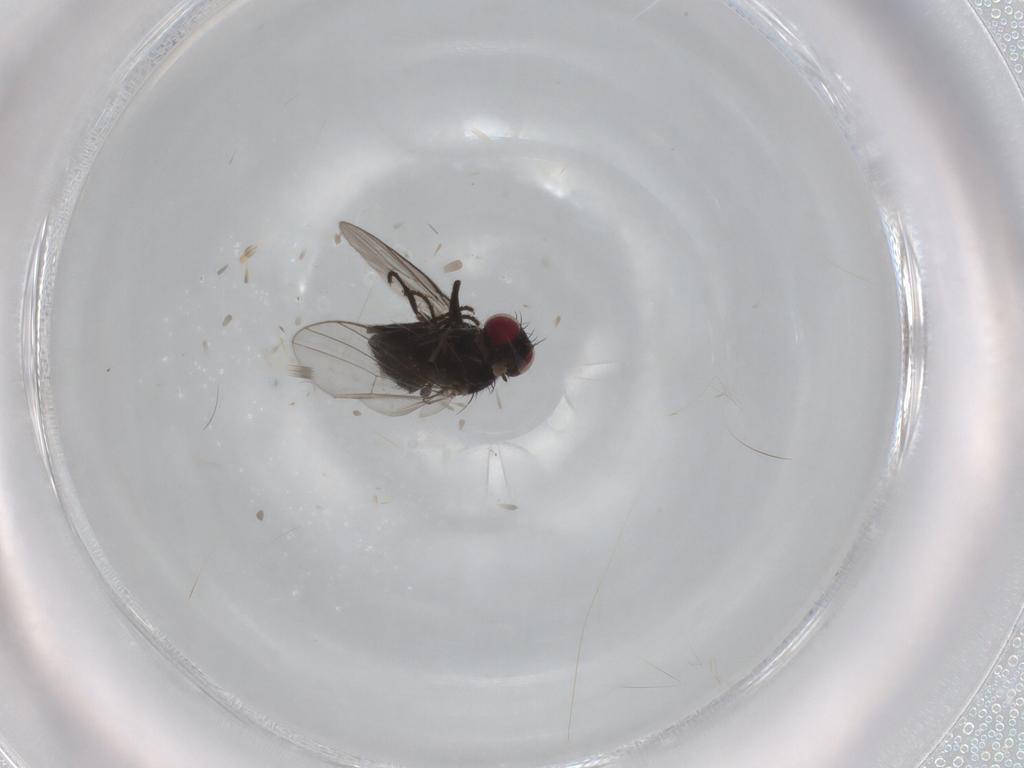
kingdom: Animalia
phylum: Arthropoda
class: Insecta
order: Diptera
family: Agromyzidae
